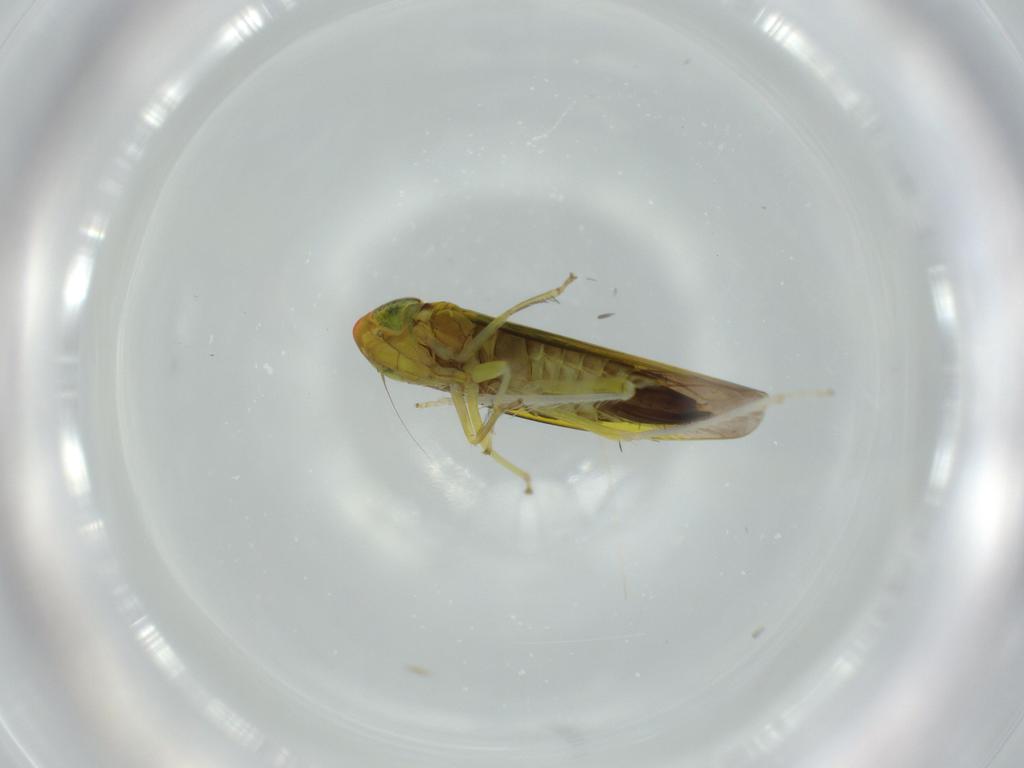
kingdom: Animalia
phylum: Arthropoda
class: Insecta
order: Hemiptera
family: Cicadellidae
